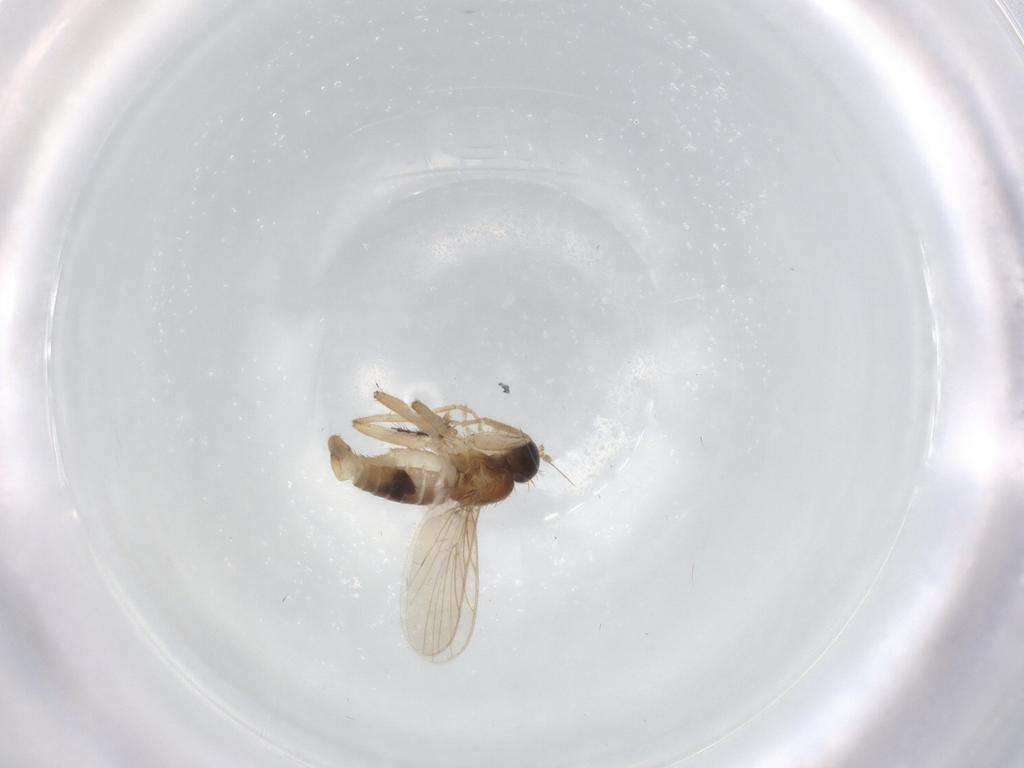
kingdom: Animalia
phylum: Arthropoda
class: Insecta
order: Diptera
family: Hybotidae
